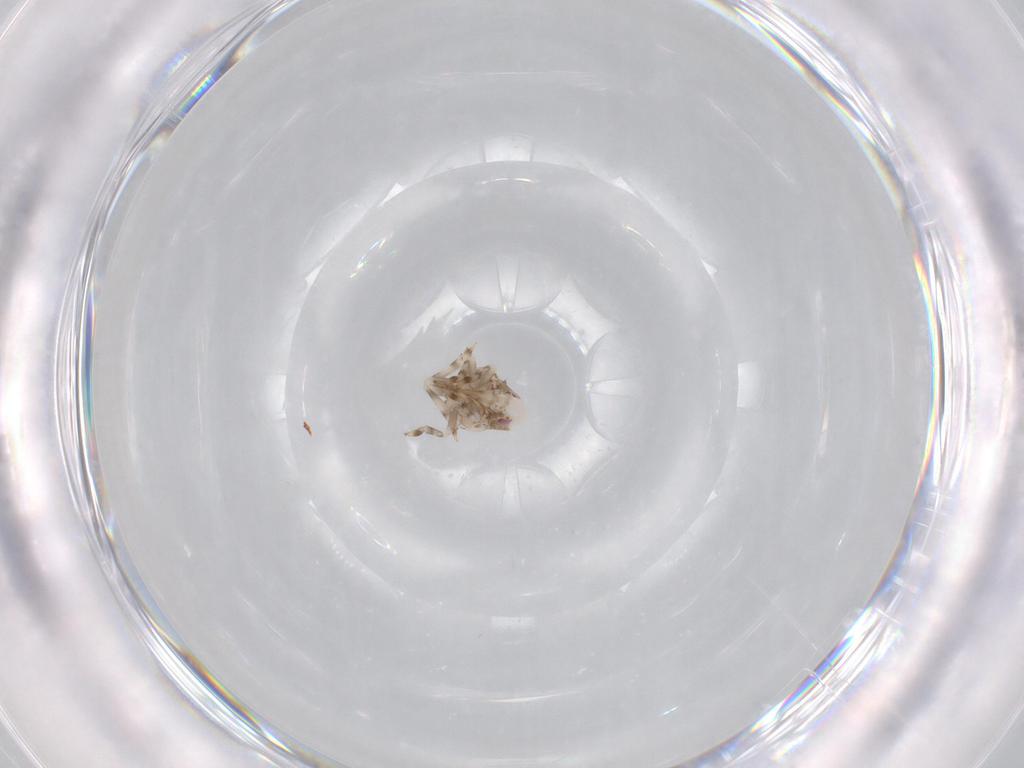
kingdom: Animalia
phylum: Arthropoda
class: Insecta
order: Hemiptera
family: Acanaloniidae
